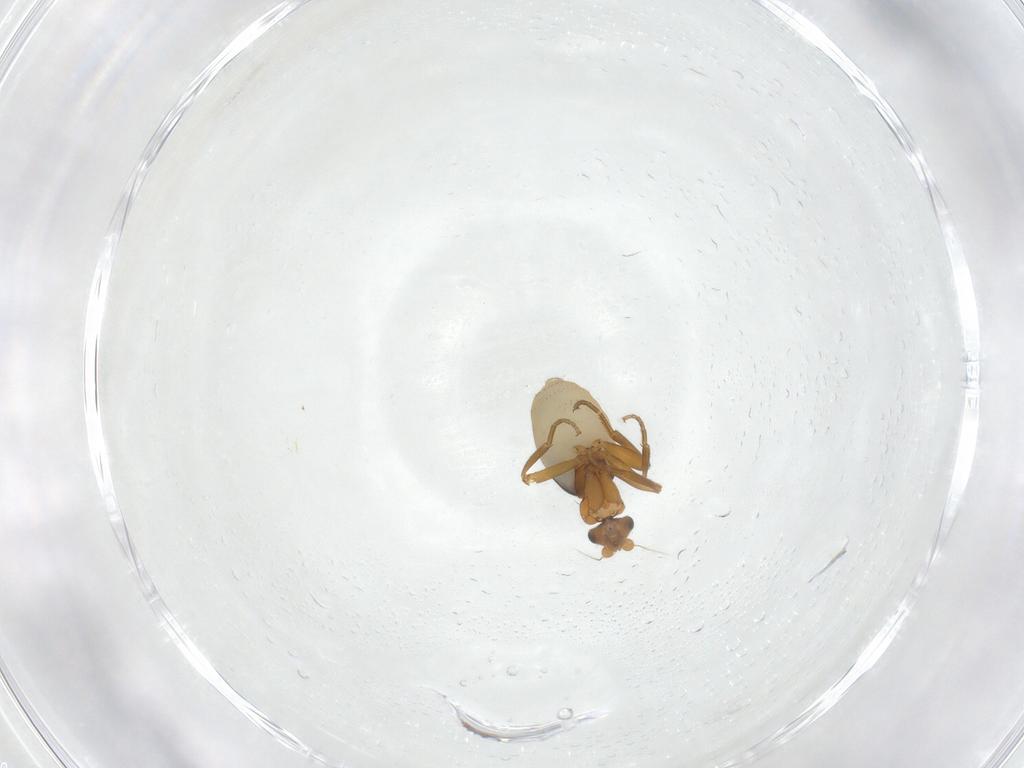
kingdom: Animalia
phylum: Arthropoda
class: Insecta
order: Diptera
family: Phoridae
